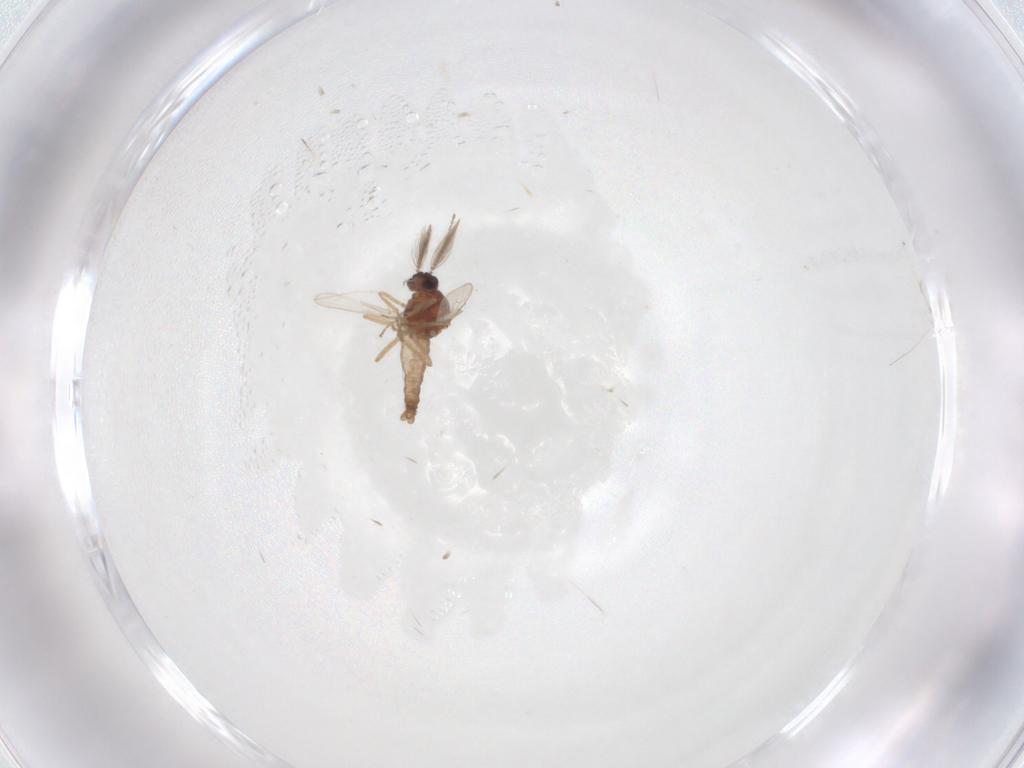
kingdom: Animalia
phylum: Arthropoda
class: Insecta
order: Diptera
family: Ceratopogonidae
